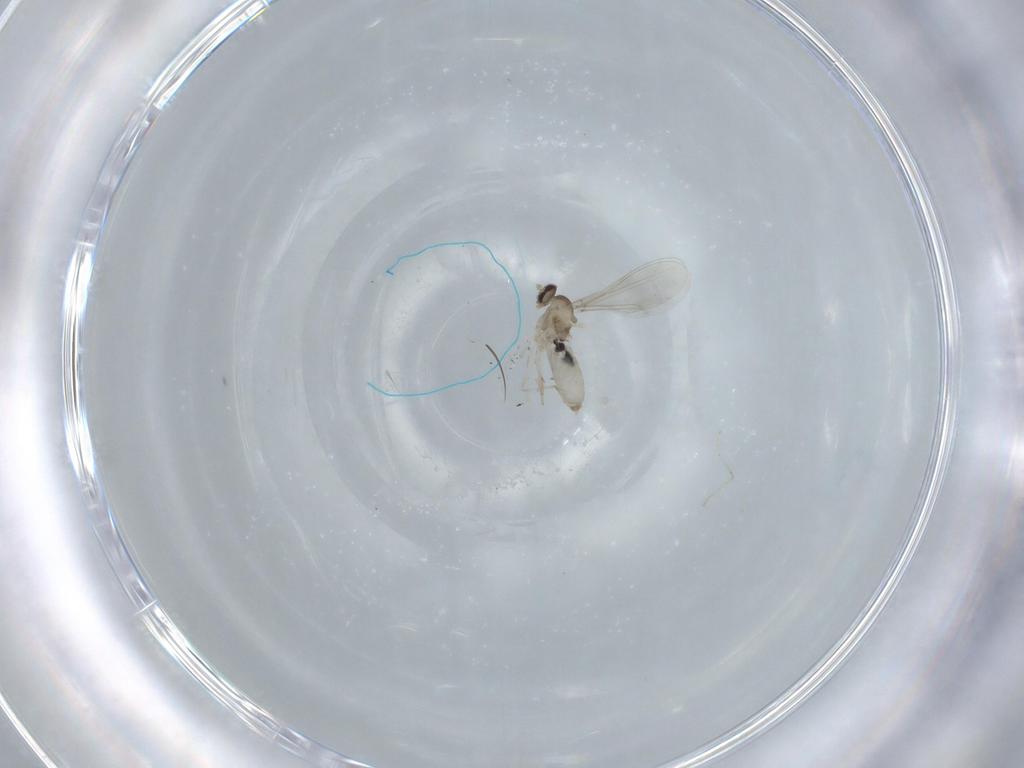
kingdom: Animalia
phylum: Arthropoda
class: Insecta
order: Diptera
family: Cecidomyiidae
